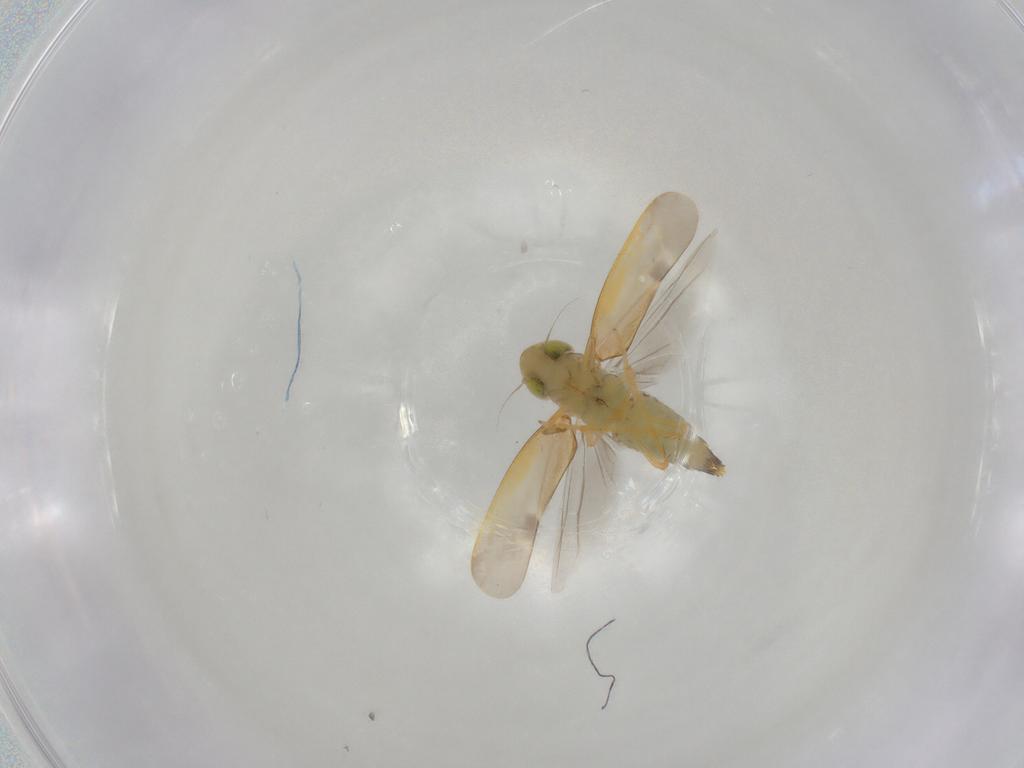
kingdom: Animalia
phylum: Arthropoda
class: Insecta
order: Hemiptera
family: Cicadellidae
